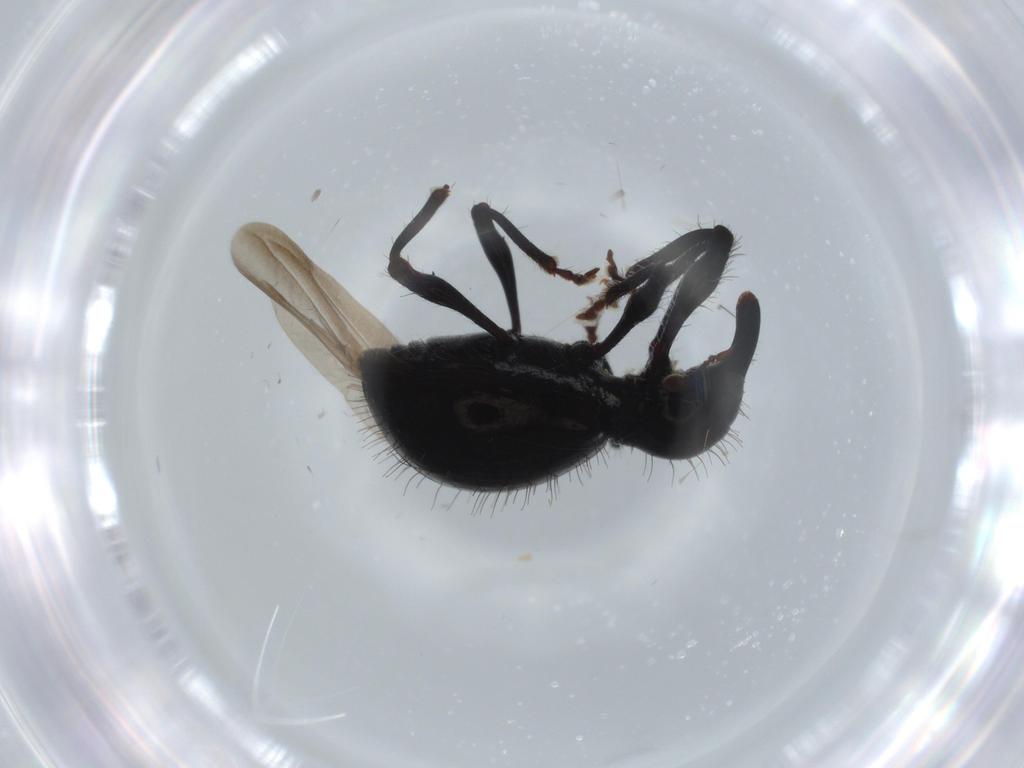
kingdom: Animalia
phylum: Arthropoda
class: Insecta
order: Coleoptera
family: Curculionidae
